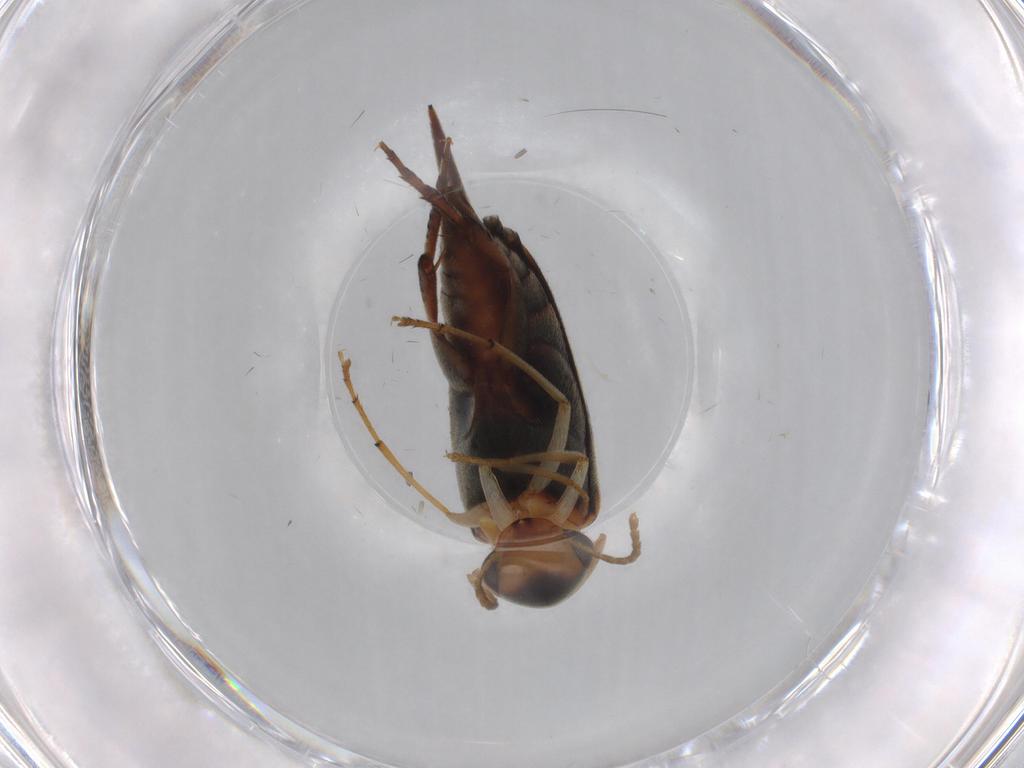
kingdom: Animalia
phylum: Arthropoda
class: Insecta
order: Coleoptera
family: Mordellidae
